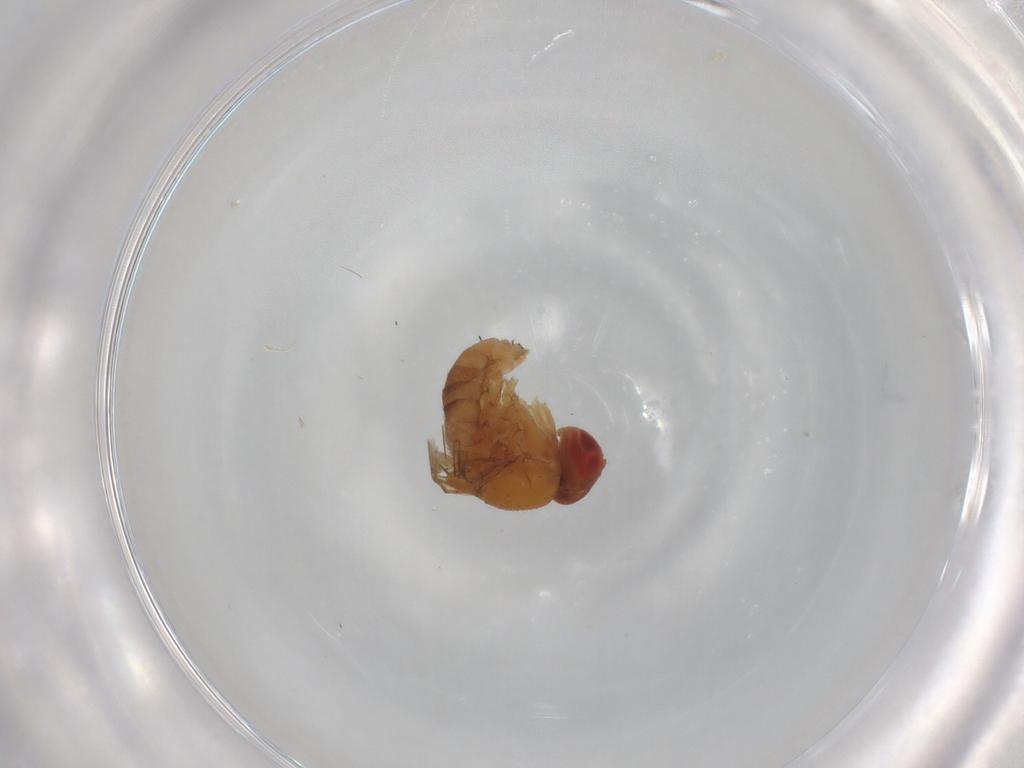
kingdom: Animalia
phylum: Arthropoda
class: Insecta
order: Diptera
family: Drosophilidae
